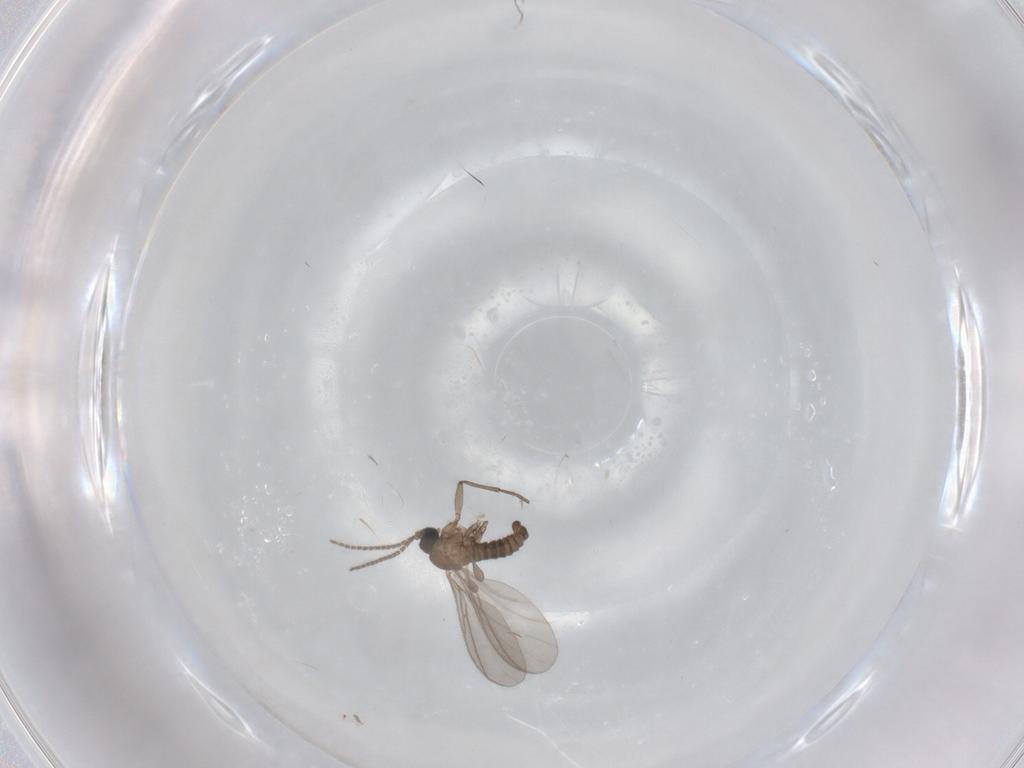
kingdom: Animalia
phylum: Arthropoda
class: Insecta
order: Diptera
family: Sciaridae
